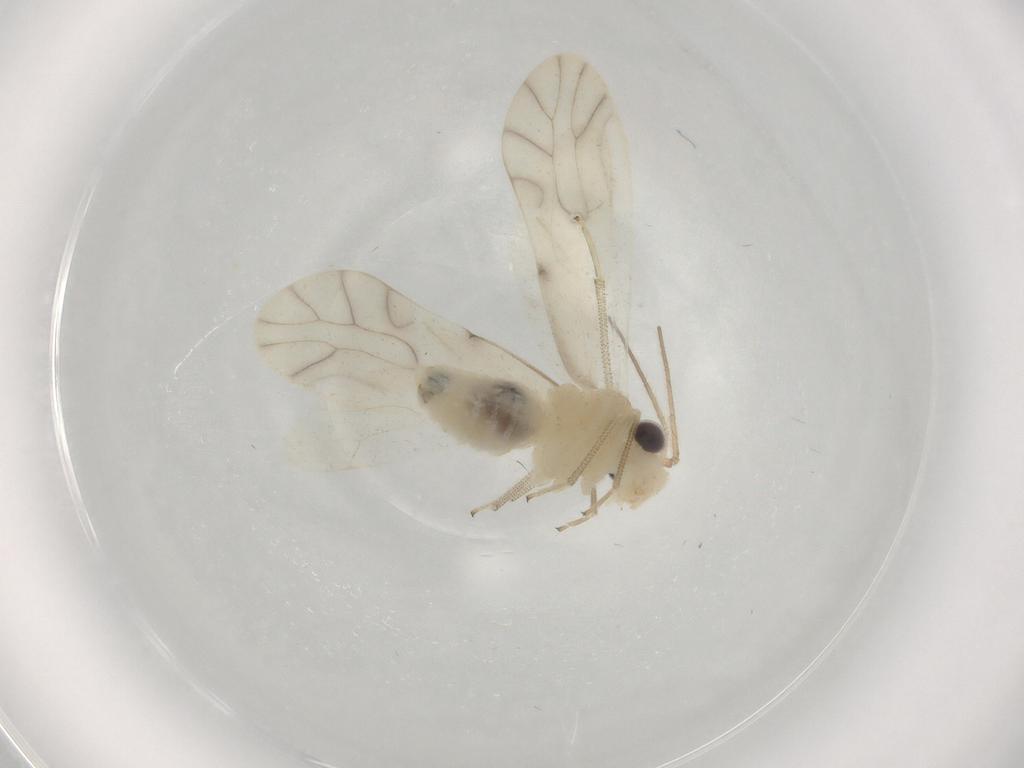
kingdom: Animalia
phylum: Arthropoda
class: Insecta
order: Psocodea
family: Caeciliusidae
